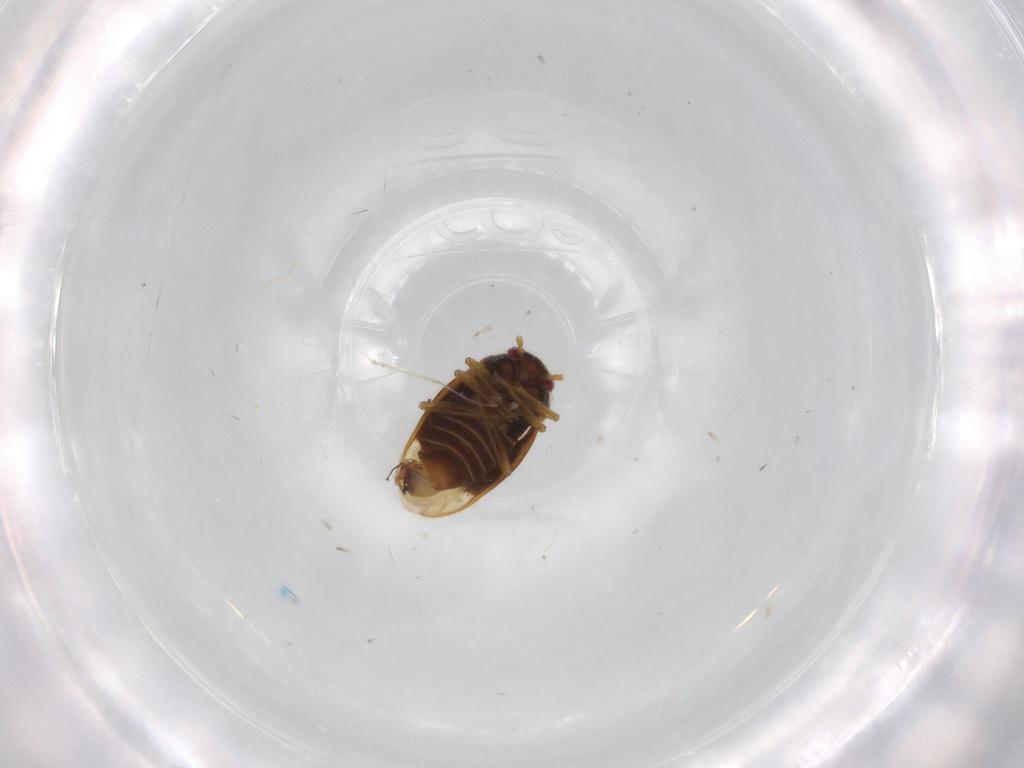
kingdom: Animalia
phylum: Arthropoda
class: Insecta
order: Hemiptera
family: Schizopteridae
